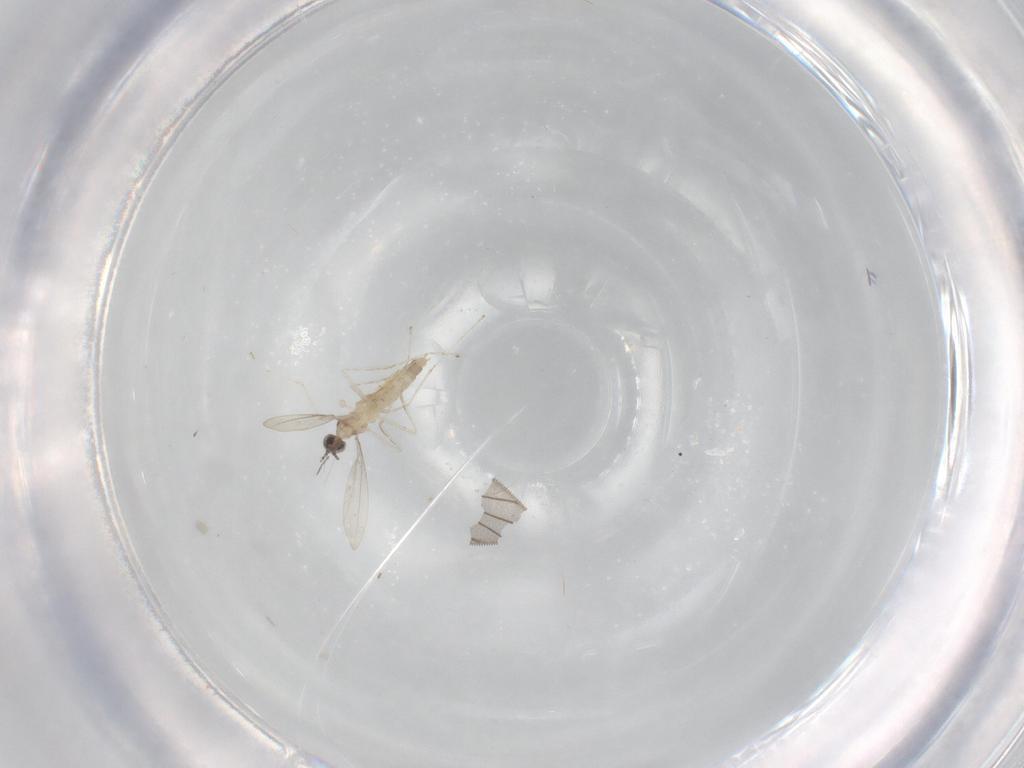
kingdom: Animalia
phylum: Arthropoda
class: Insecta
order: Diptera
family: Cecidomyiidae
